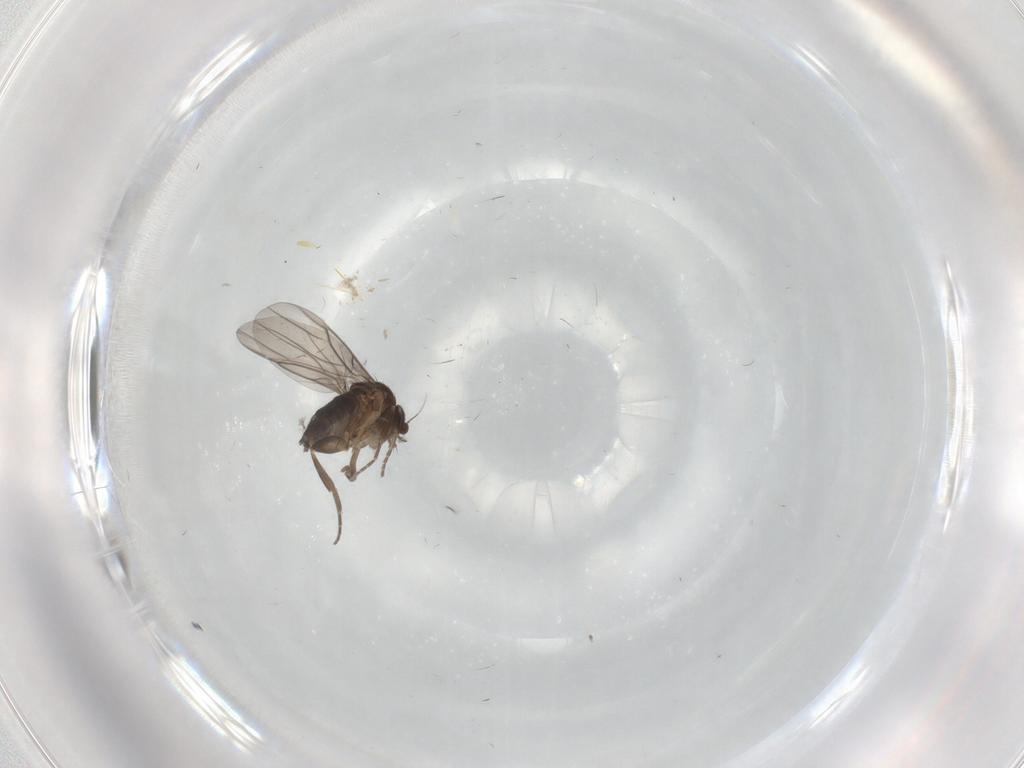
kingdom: Animalia
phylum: Arthropoda
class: Insecta
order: Diptera
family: Phoridae
